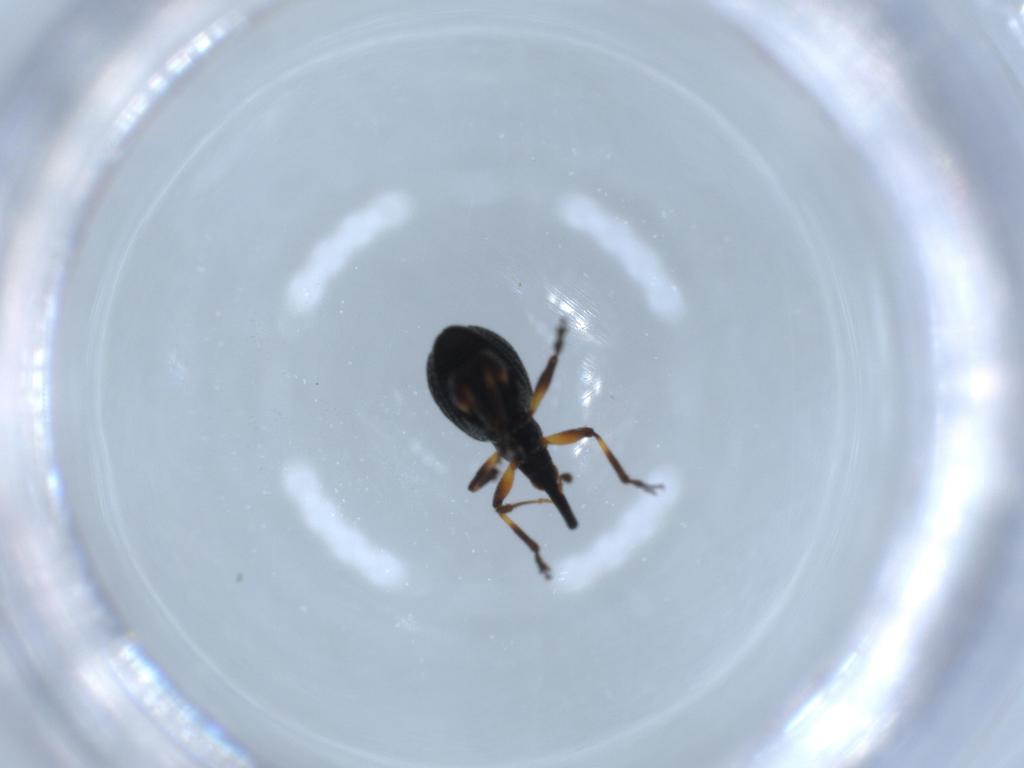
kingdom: Animalia
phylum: Arthropoda
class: Insecta
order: Coleoptera
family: Brentidae
